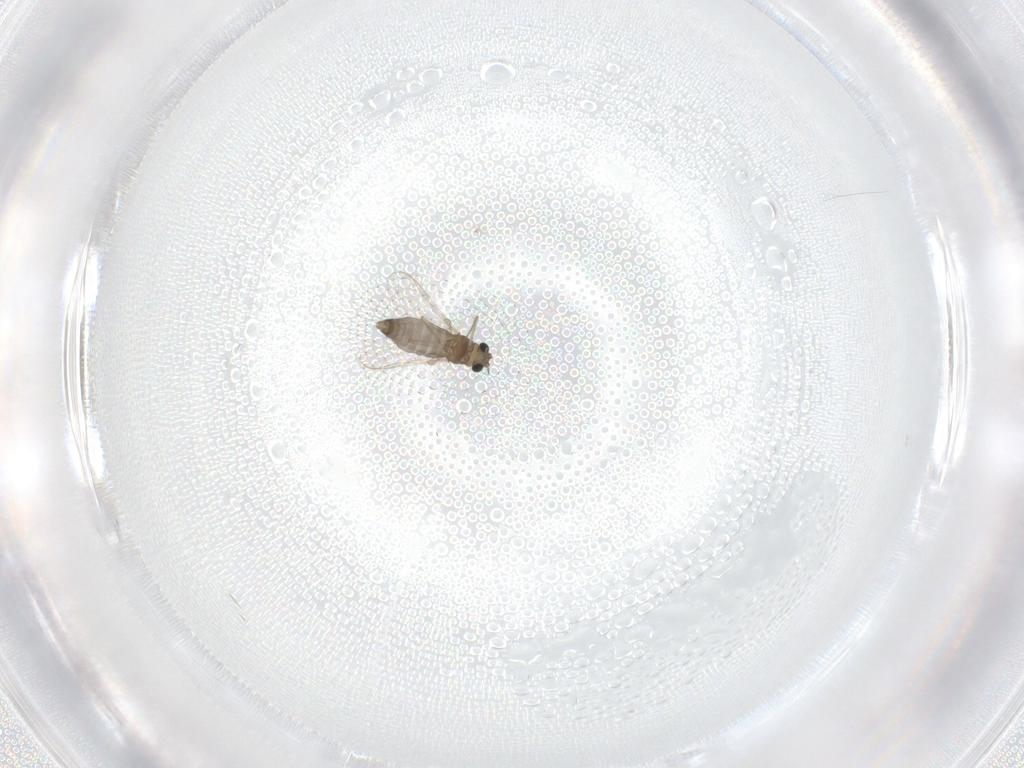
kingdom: Animalia
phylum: Arthropoda
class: Insecta
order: Diptera
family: Chironomidae
